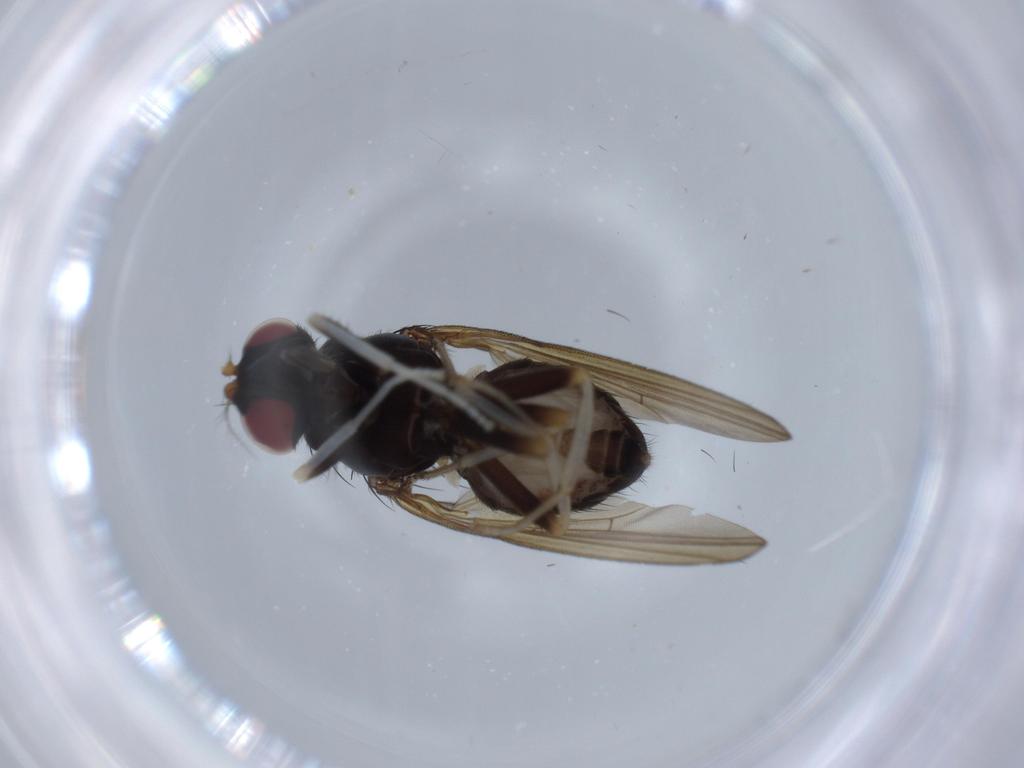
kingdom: Animalia
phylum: Arthropoda
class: Insecta
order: Diptera
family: Lauxaniidae
